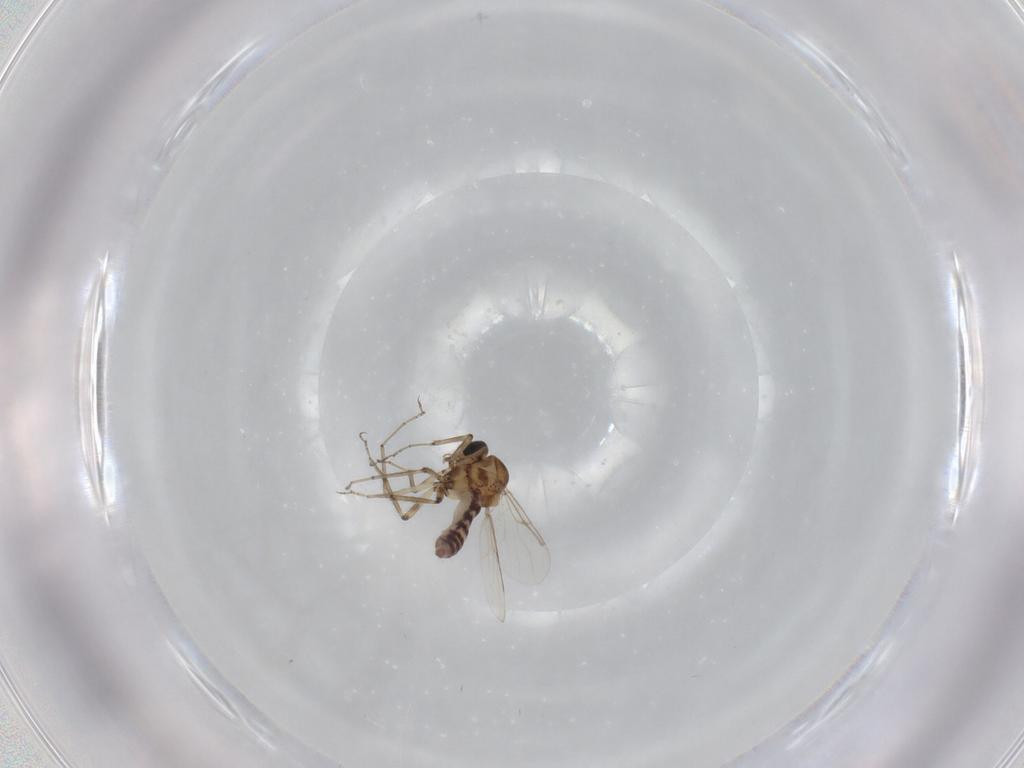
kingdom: Animalia
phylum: Arthropoda
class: Insecta
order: Diptera
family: Ceratopogonidae
